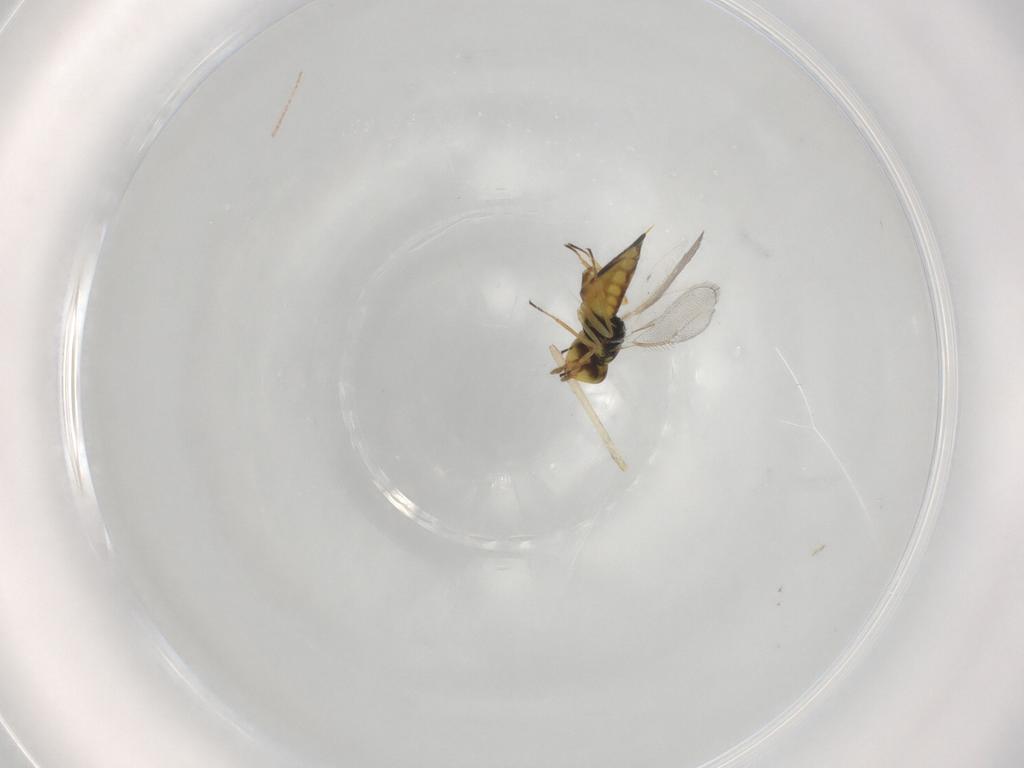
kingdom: Animalia
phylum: Arthropoda
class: Insecta
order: Diptera
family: Cecidomyiidae
